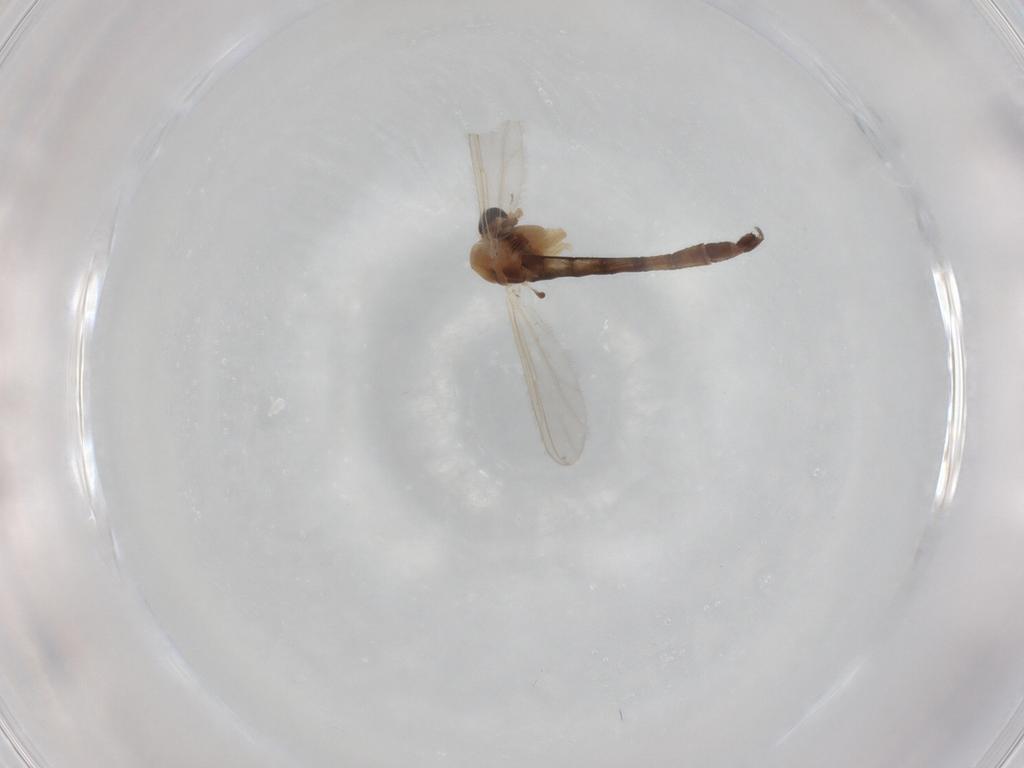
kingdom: Animalia
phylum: Arthropoda
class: Insecta
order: Diptera
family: Chironomidae
